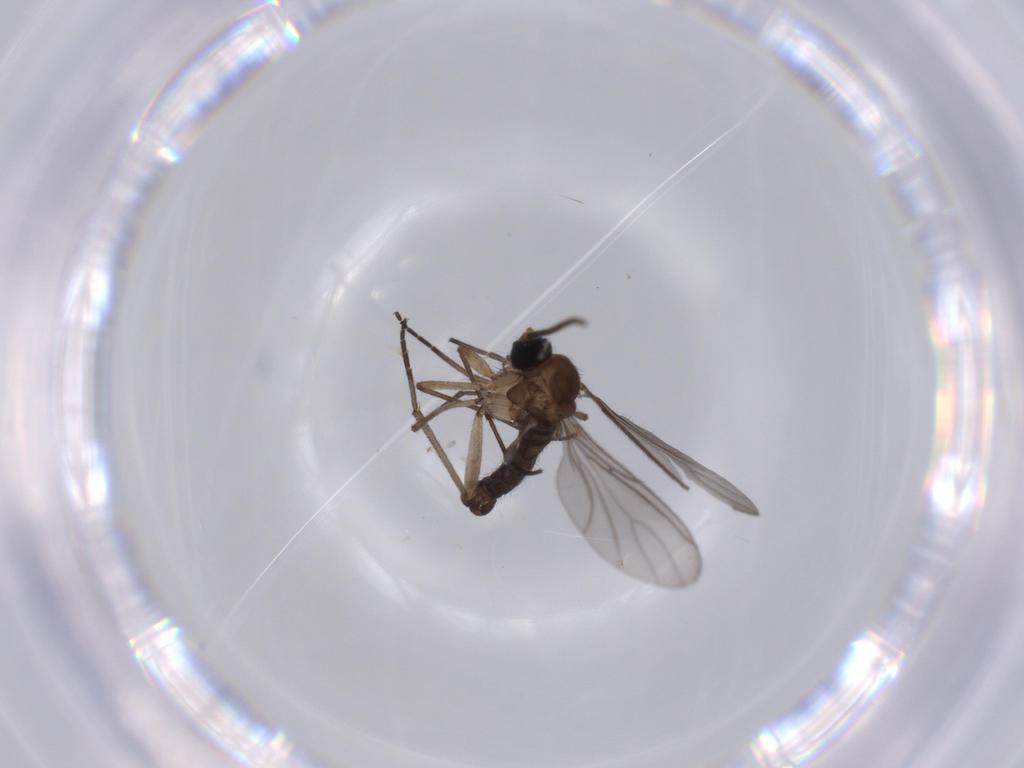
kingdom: Animalia
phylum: Arthropoda
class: Insecta
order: Diptera
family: Sciaridae
